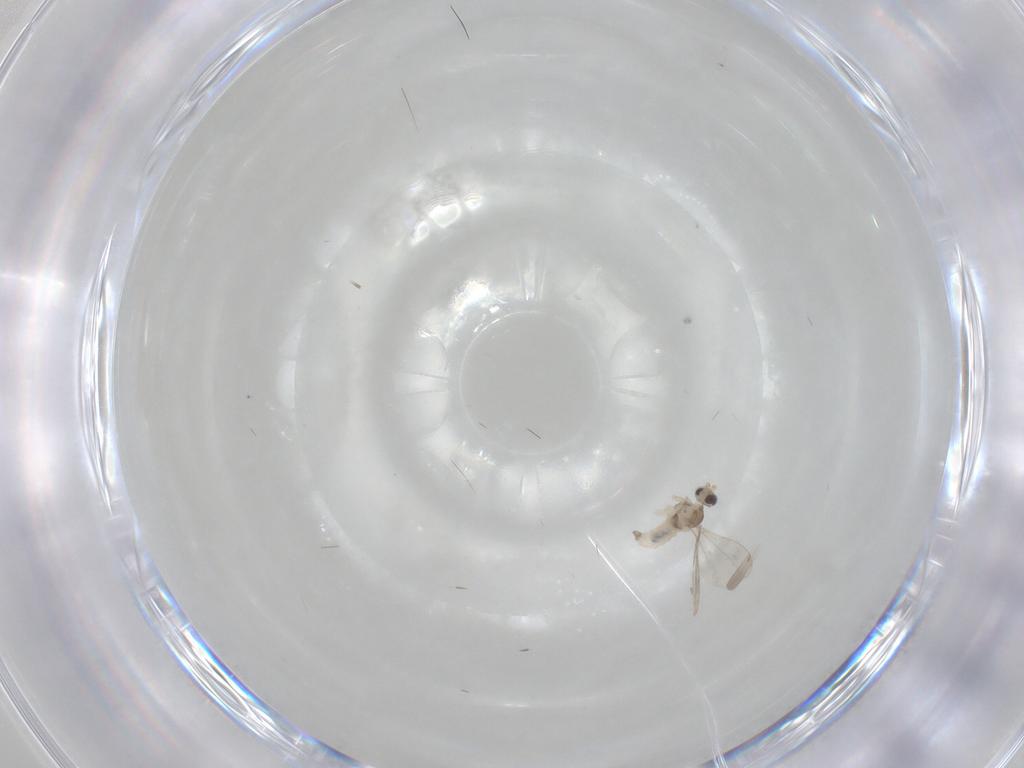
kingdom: Animalia
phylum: Arthropoda
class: Insecta
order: Diptera
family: Cecidomyiidae
